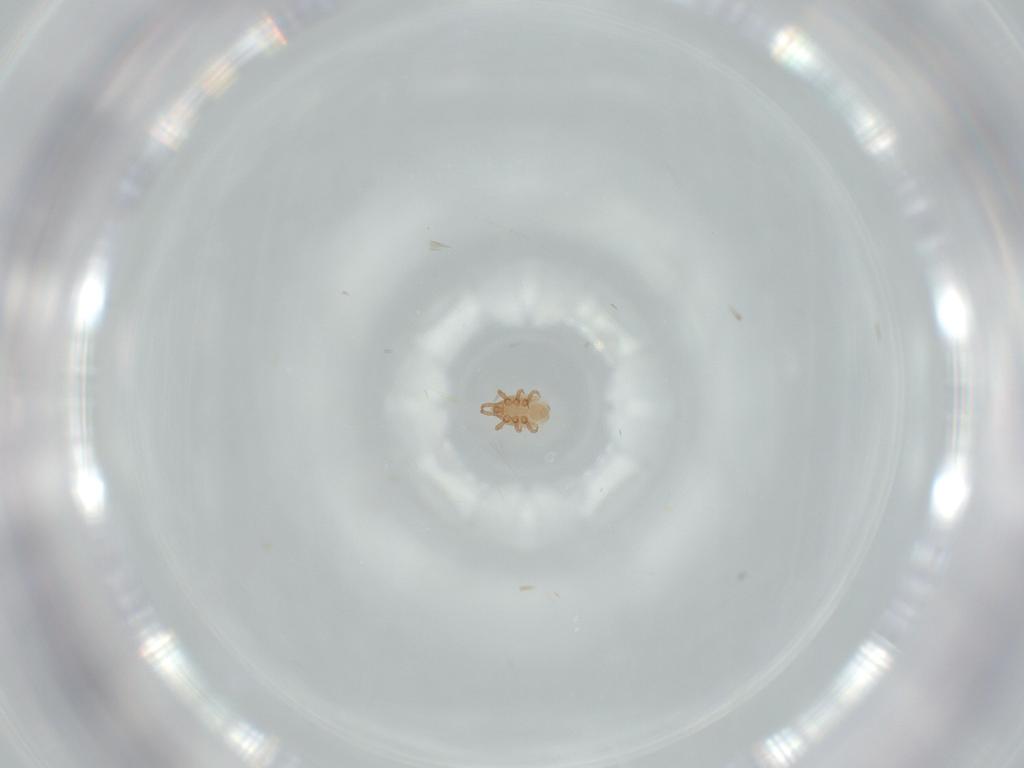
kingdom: Animalia
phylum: Arthropoda
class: Arachnida
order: Mesostigmata
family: Dinychidae
